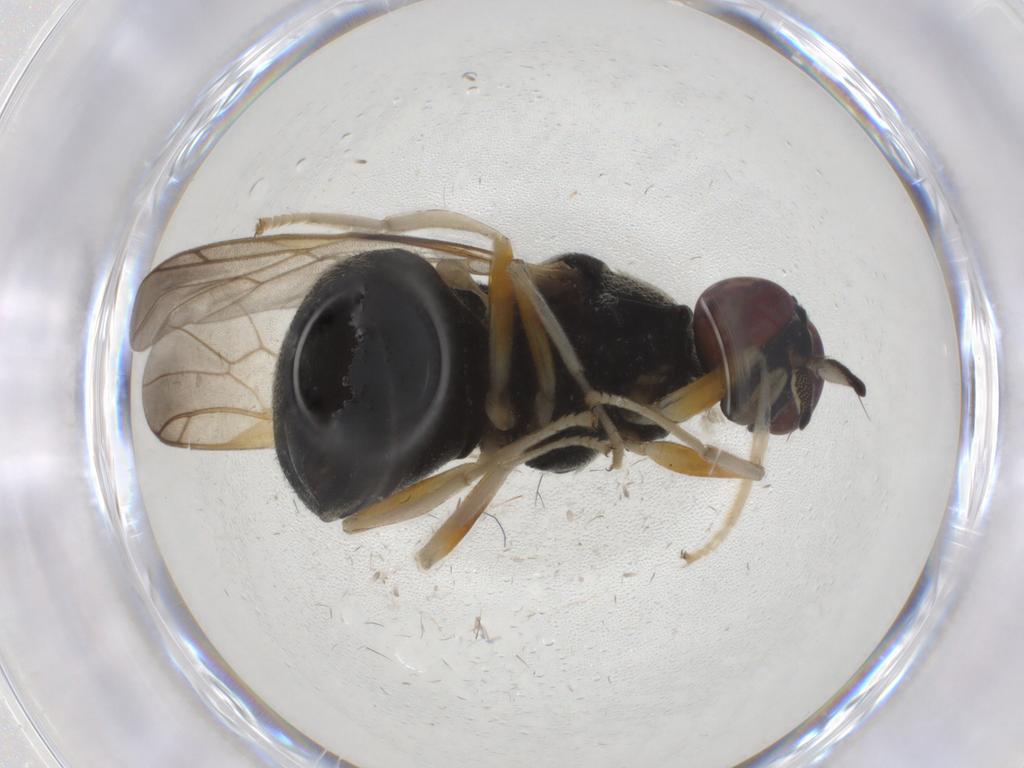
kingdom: Animalia
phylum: Arthropoda
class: Insecta
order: Diptera
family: Stratiomyidae
